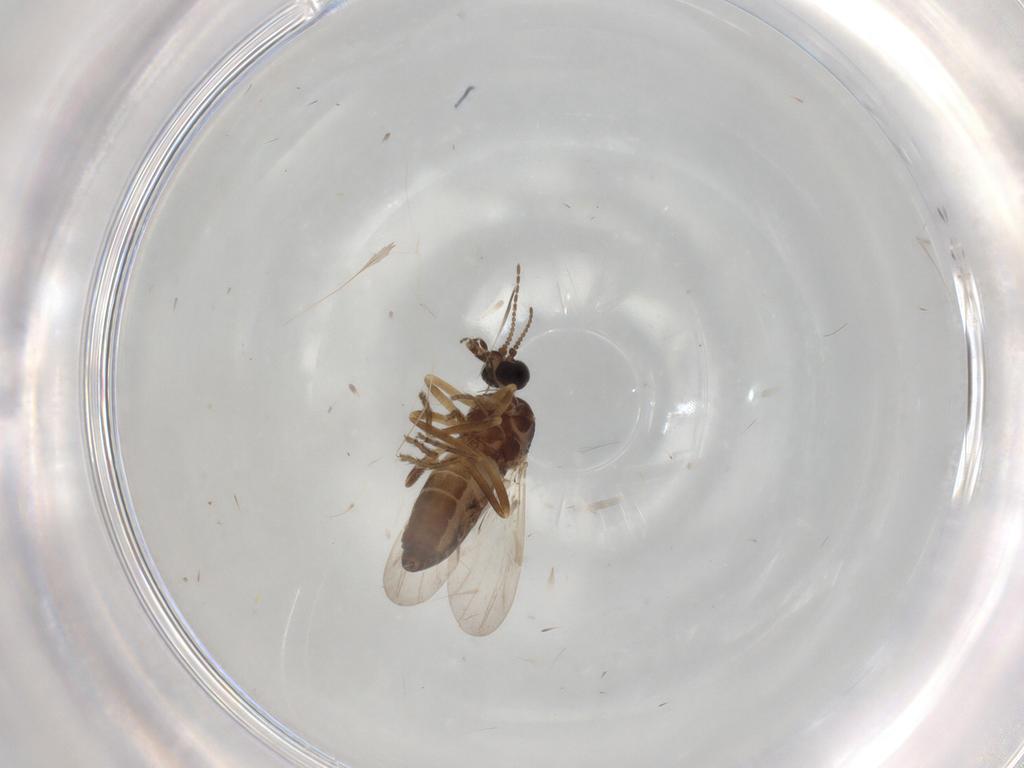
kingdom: Animalia
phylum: Arthropoda
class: Insecta
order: Diptera
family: Ceratopogonidae
